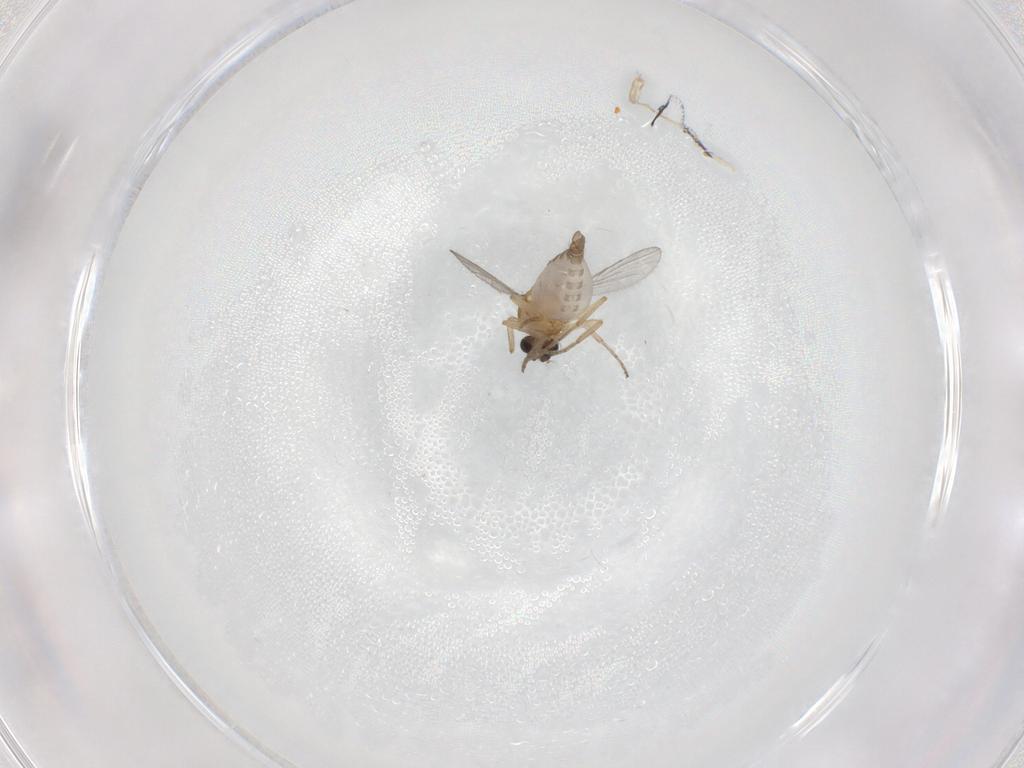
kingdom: Animalia
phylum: Arthropoda
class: Insecta
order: Diptera
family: Ceratopogonidae
